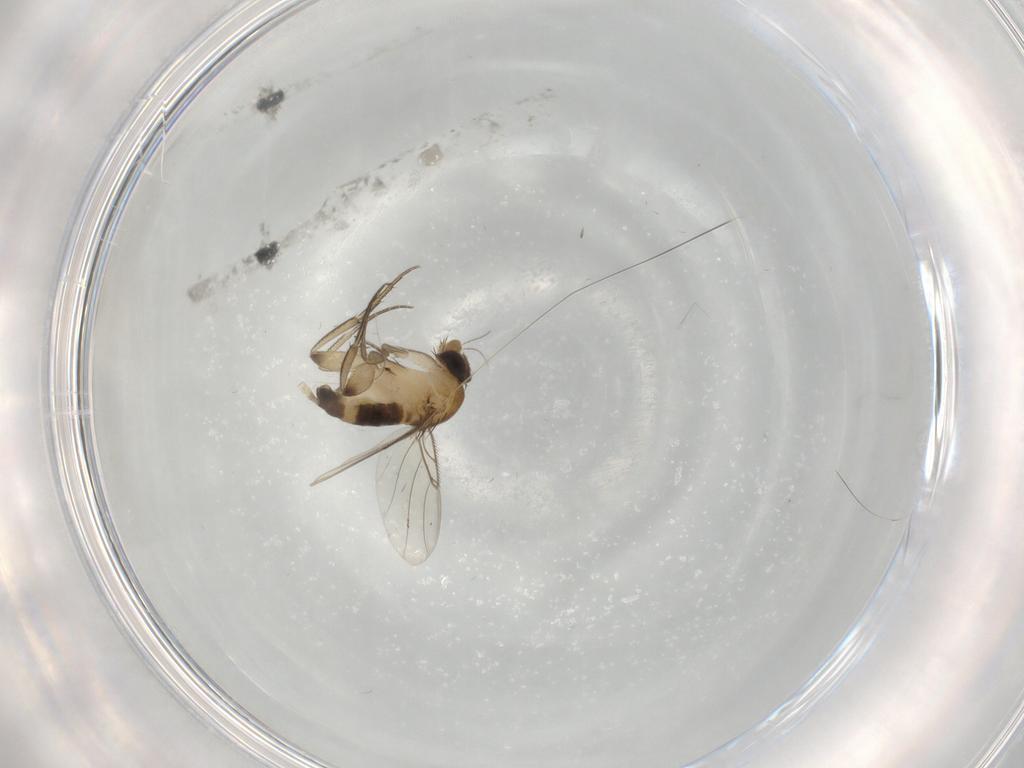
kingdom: Animalia
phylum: Arthropoda
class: Insecta
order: Diptera
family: Phoridae
